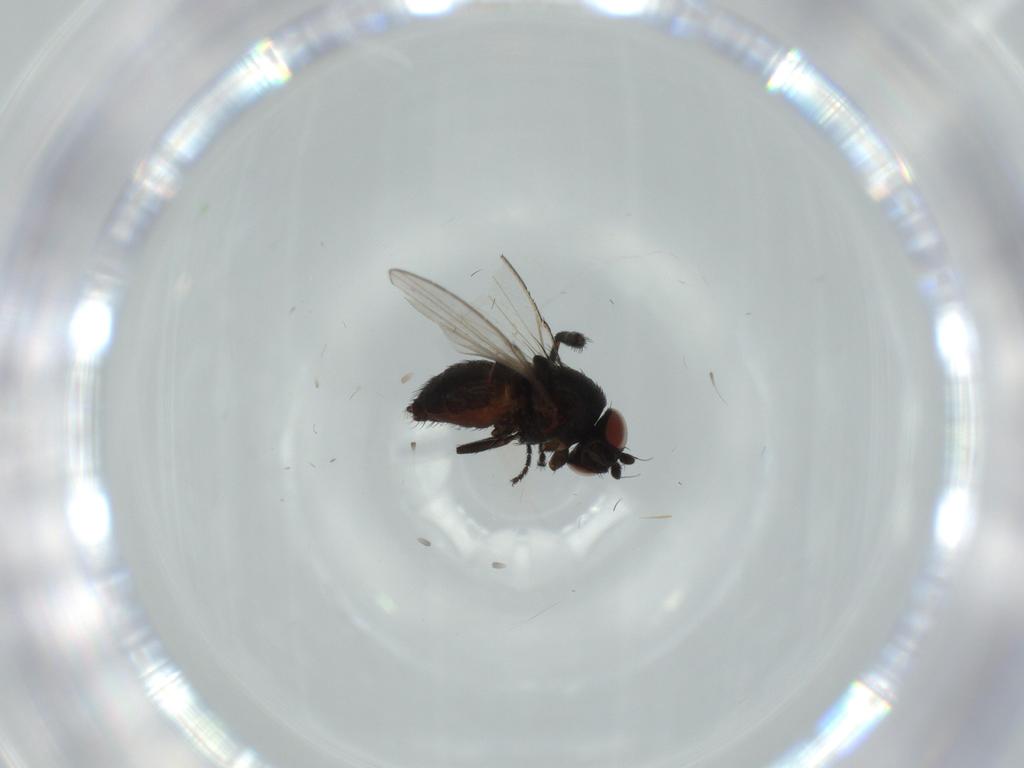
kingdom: Animalia
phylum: Arthropoda
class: Insecta
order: Diptera
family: Milichiidae
